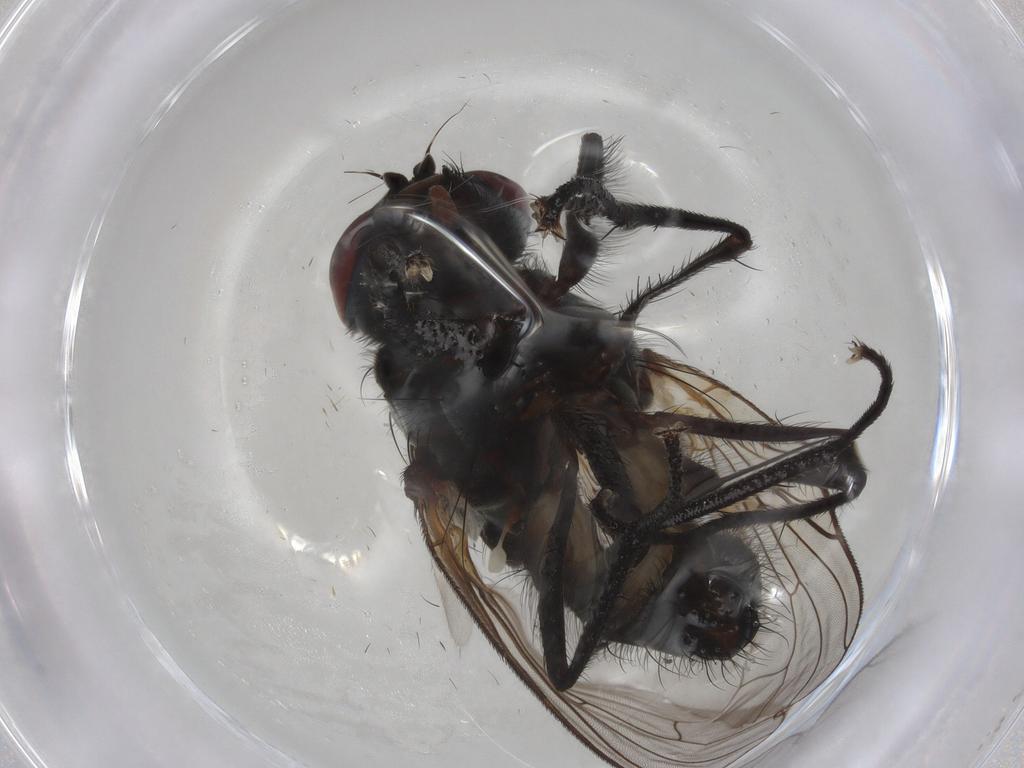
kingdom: Animalia
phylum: Arthropoda
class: Insecta
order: Diptera
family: Anthomyiidae
